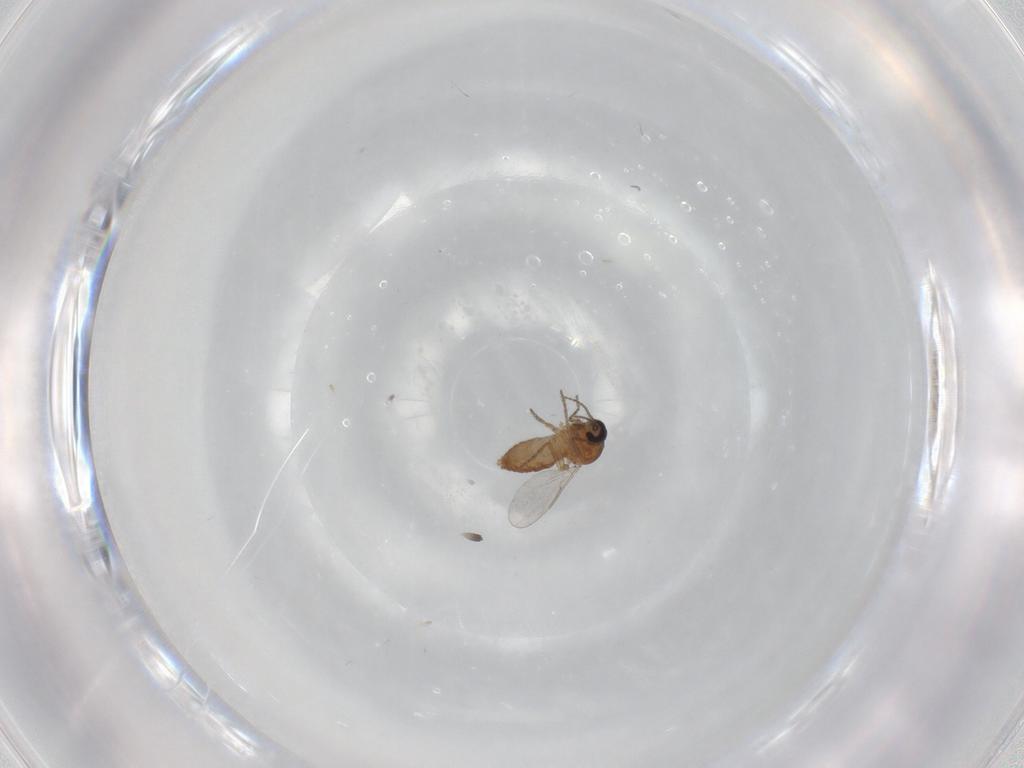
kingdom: Animalia
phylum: Arthropoda
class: Insecta
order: Diptera
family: Ceratopogonidae
